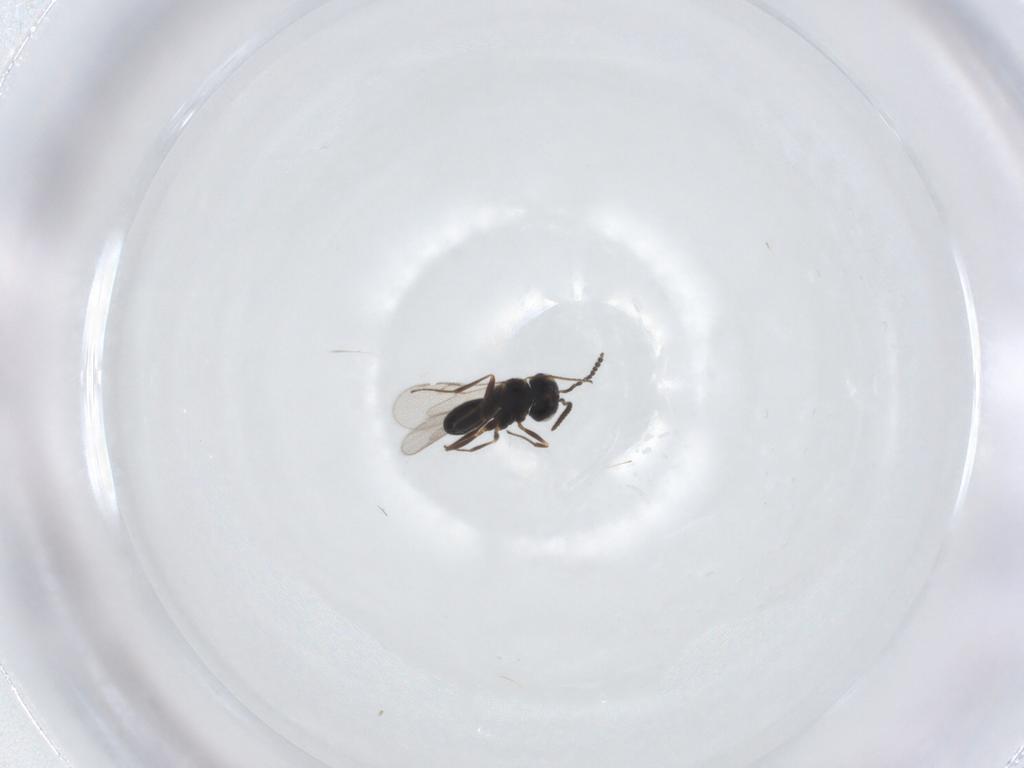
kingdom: Animalia
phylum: Arthropoda
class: Insecta
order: Hymenoptera
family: Scelionidae
